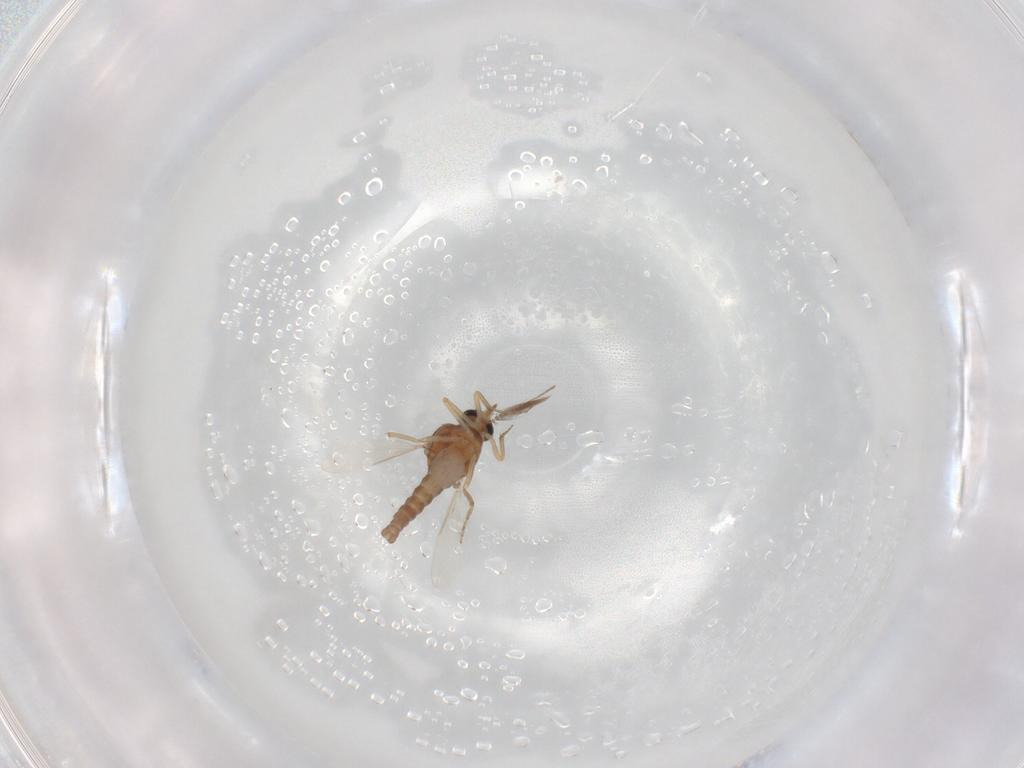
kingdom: Animalia
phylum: Arthropoda
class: Insecta
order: Diptera
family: Ceratopogonidae
